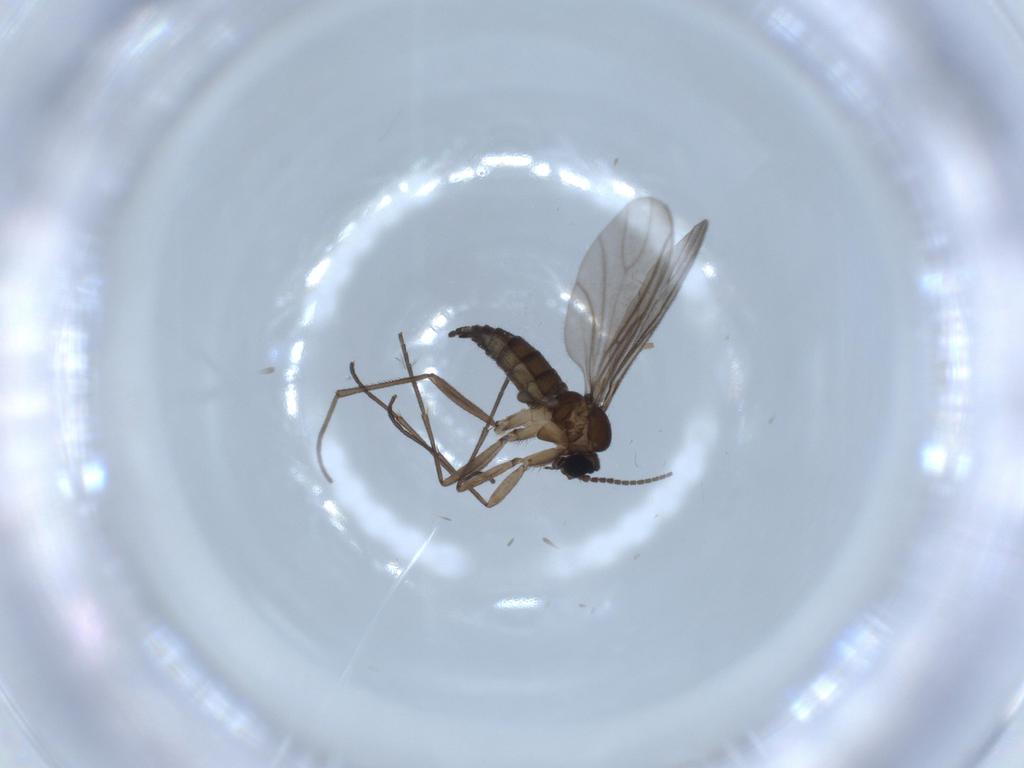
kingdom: Animalia
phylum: Arthropoda
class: Insecta
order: Diptera
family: Sciaridae
